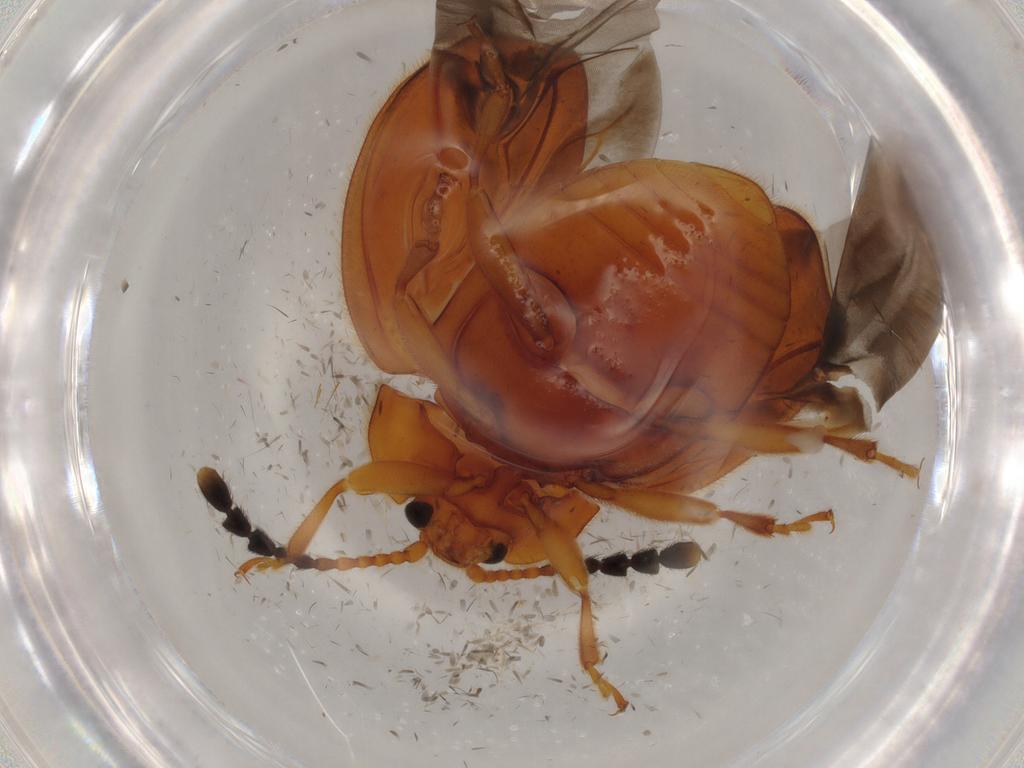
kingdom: Animalia
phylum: Arthropoda
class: Insecta
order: Coleoptera
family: Endomychidae
